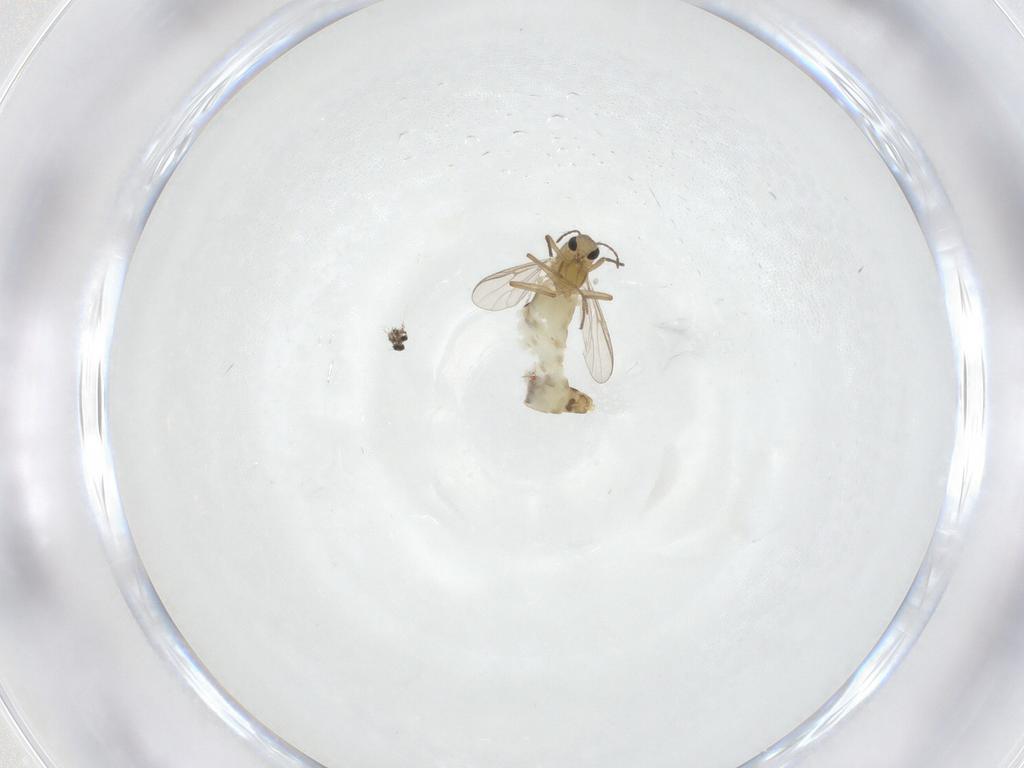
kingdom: Animalia
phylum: Arthropoda
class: Insecta
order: Diptera
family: Chironomidae
